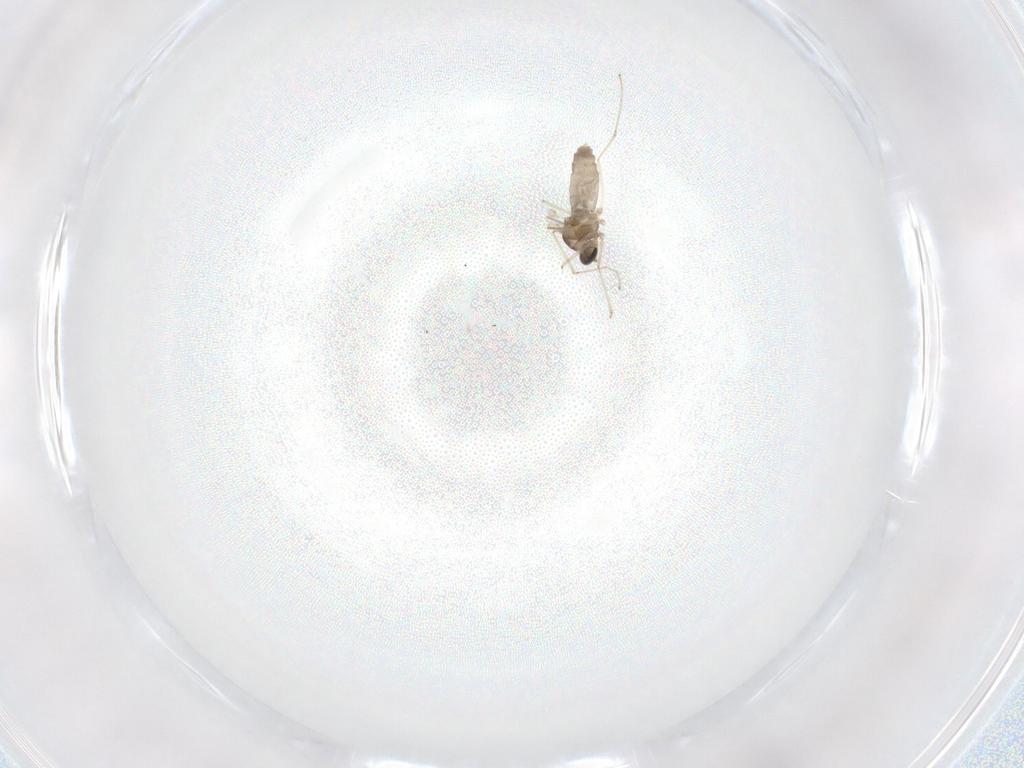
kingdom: Animalia
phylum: Arthropoda
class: Insecta
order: Diptera
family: Phoridae
